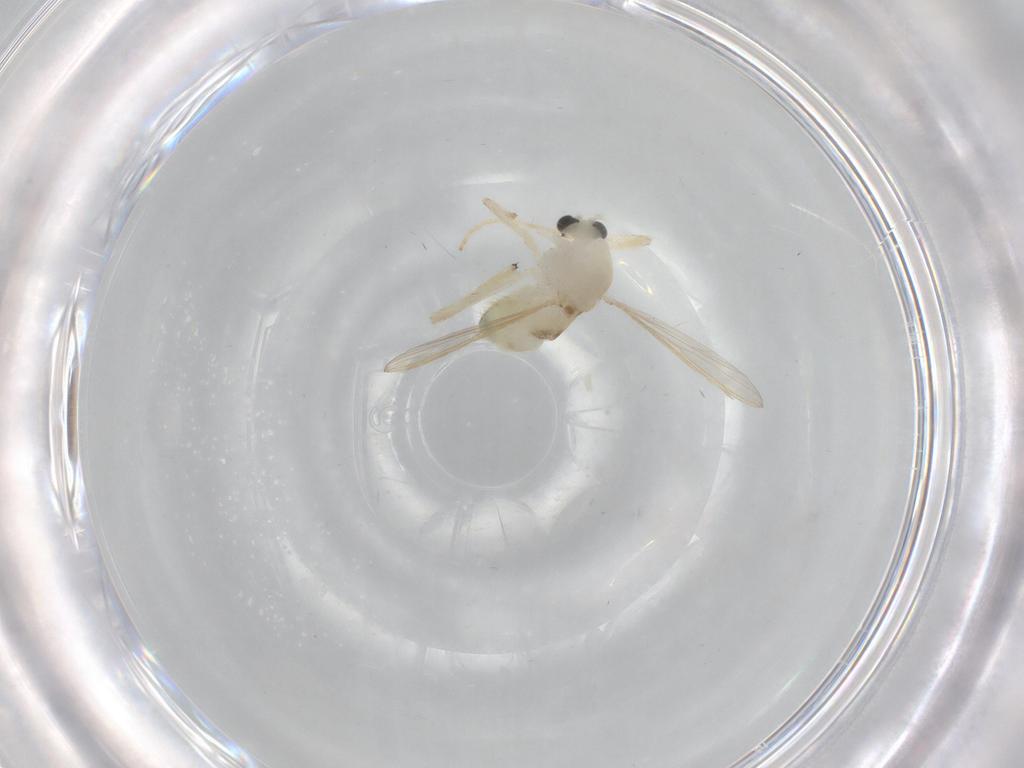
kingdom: Animalia
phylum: Arthropoda
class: Insecta
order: Diptera
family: Chironomidae
